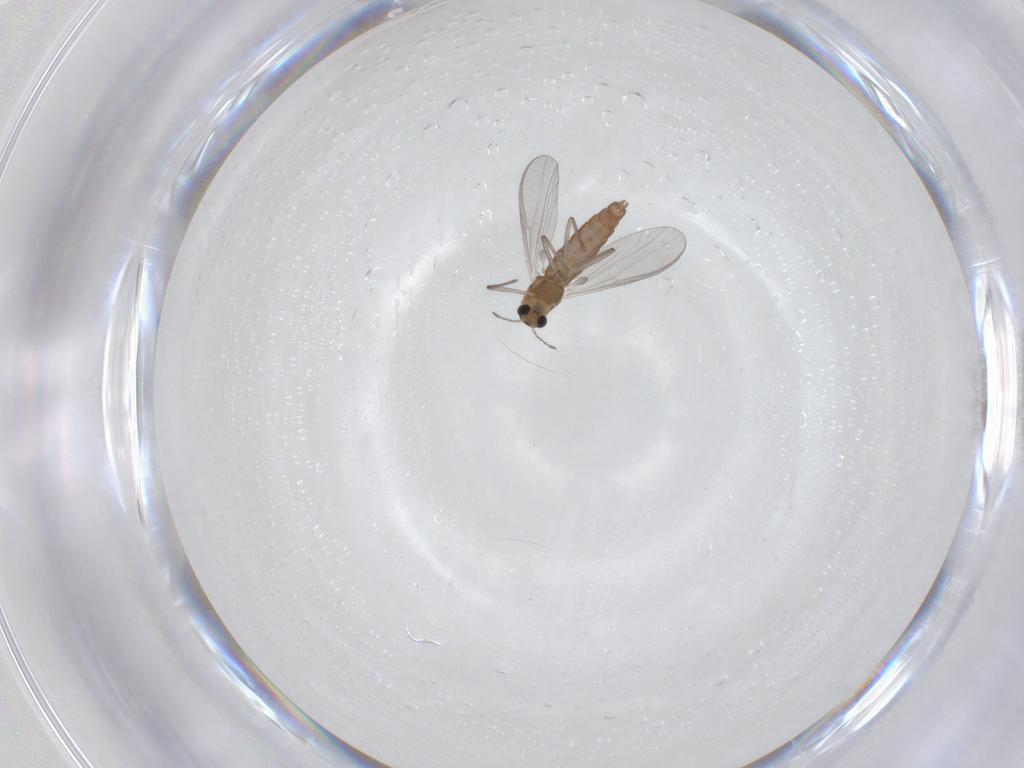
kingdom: Animalia
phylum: Arthropoda
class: Insecta
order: Diptera
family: Chironomidae
